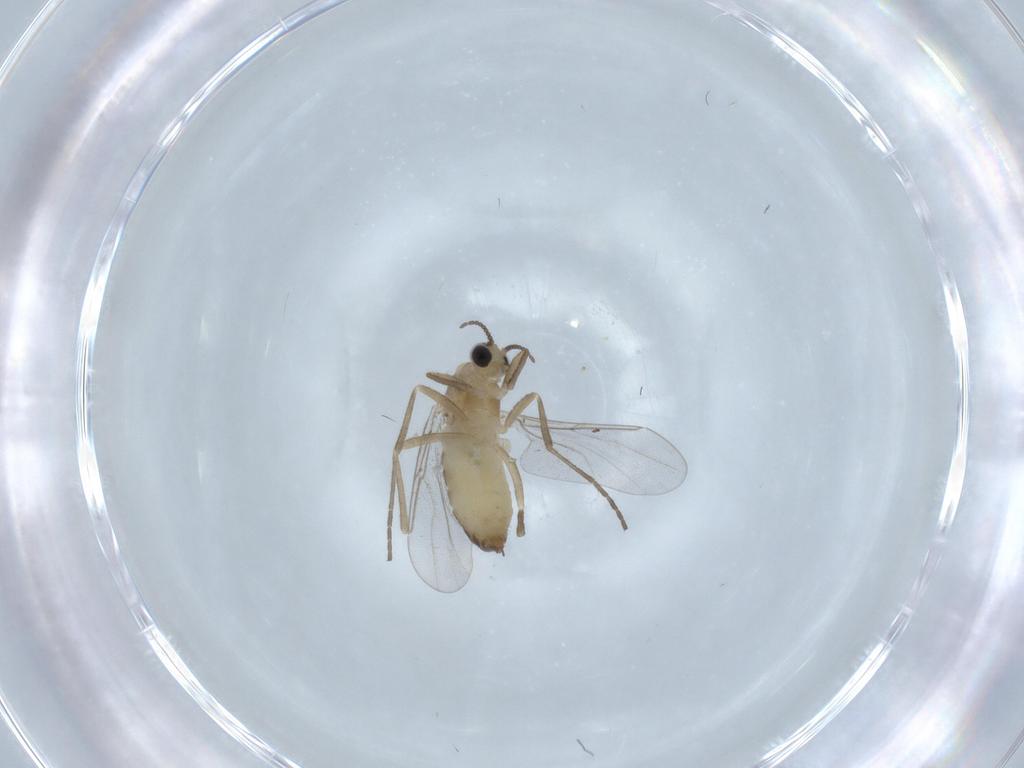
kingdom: Animalia
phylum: Arthropoda
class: Insecta
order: Diptera
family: Cecidomyiidae
